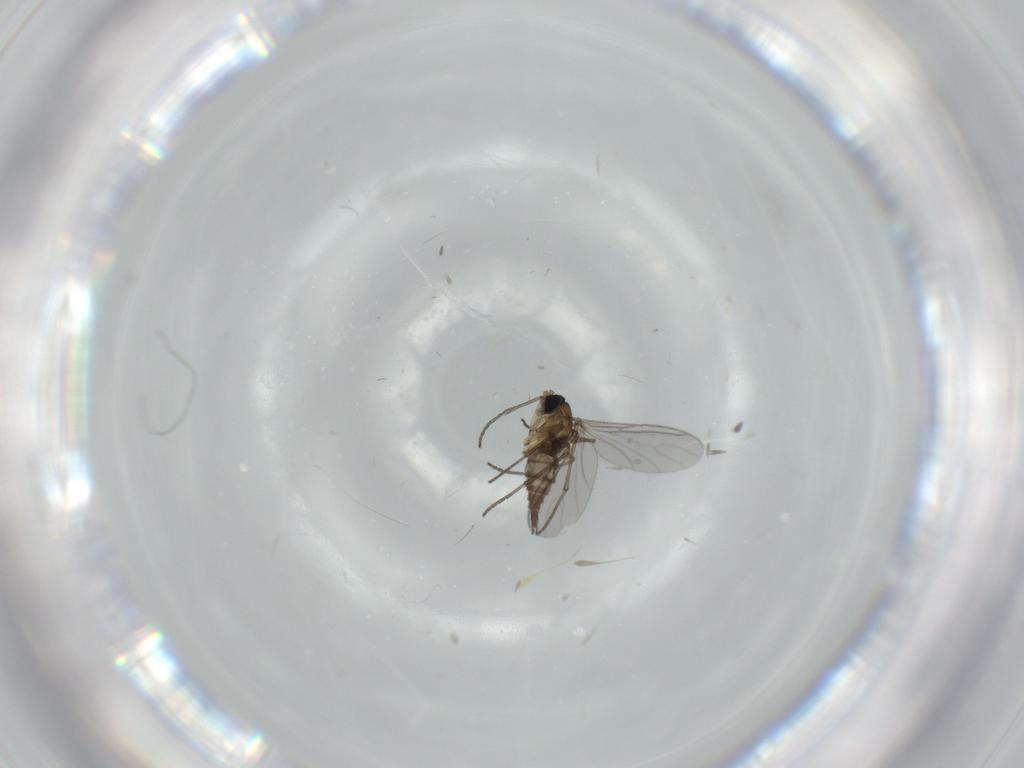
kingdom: Animalia
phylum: Arthropoda
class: Insecta
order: Diptera
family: Sciaridae
